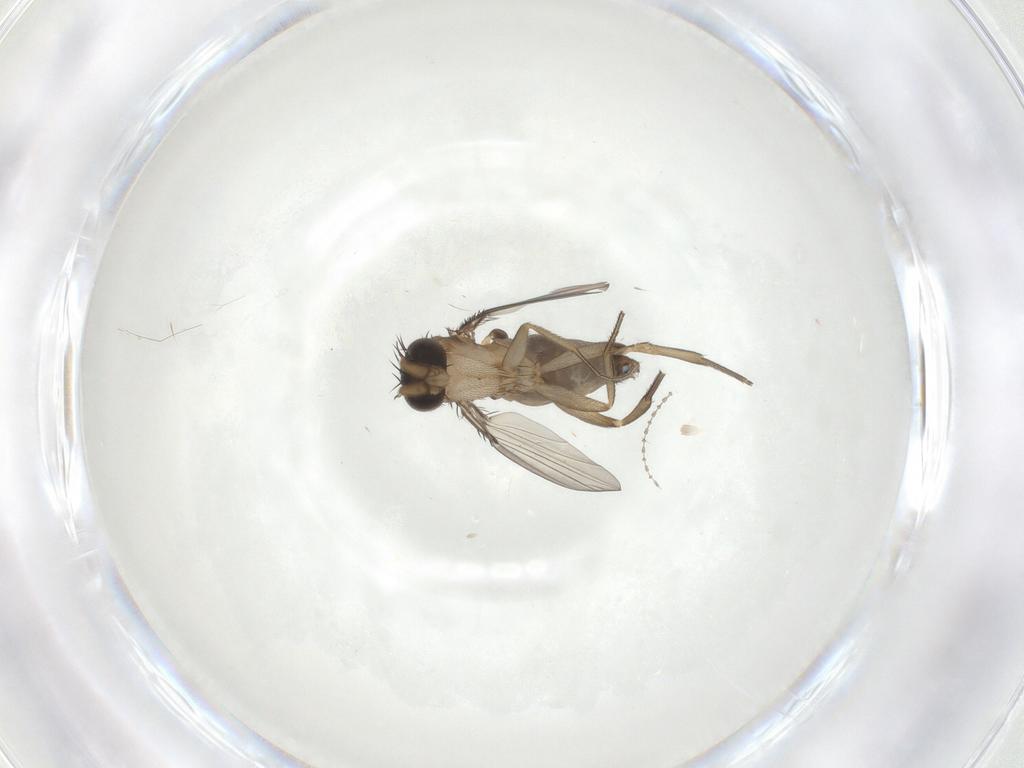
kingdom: Animalia
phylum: Arthropoda
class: Insecta
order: Diptera
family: Phoridae
